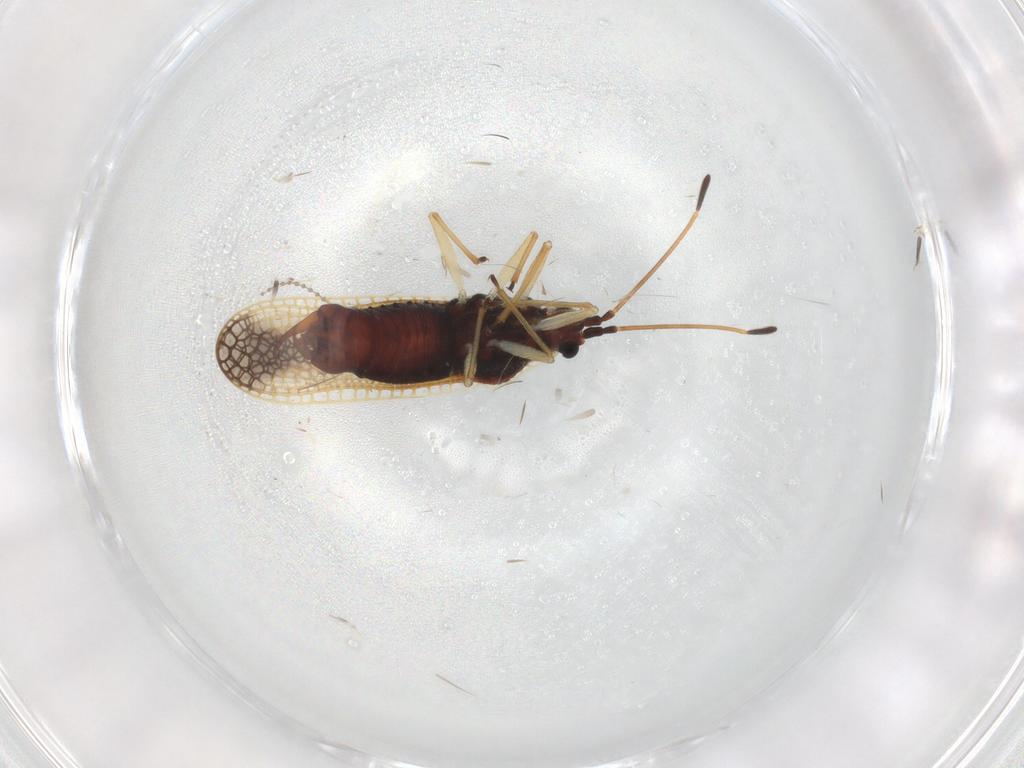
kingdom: Animalia
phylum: Arthropoda
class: Insecta
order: Hemiptera
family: Tingidae
